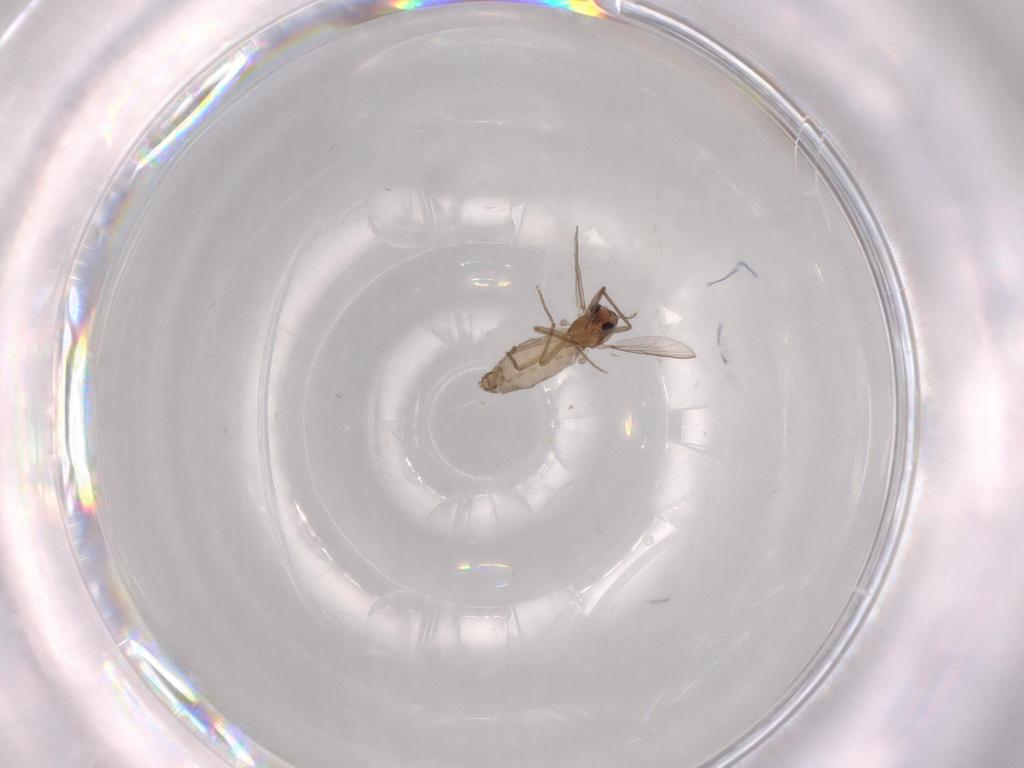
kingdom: Animalia
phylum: Arthropoda
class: Insecta
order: Diptera
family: Chironomidae
